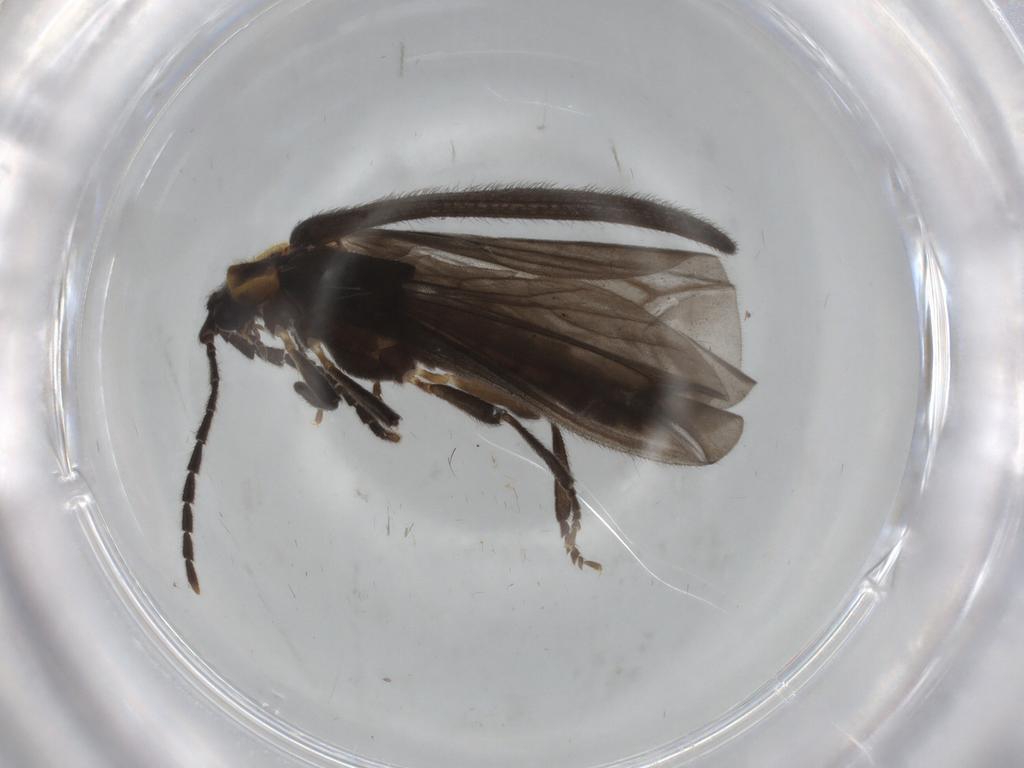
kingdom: Animalia
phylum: Arthropoda
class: Insecta
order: Coleoptera
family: Lycidae
